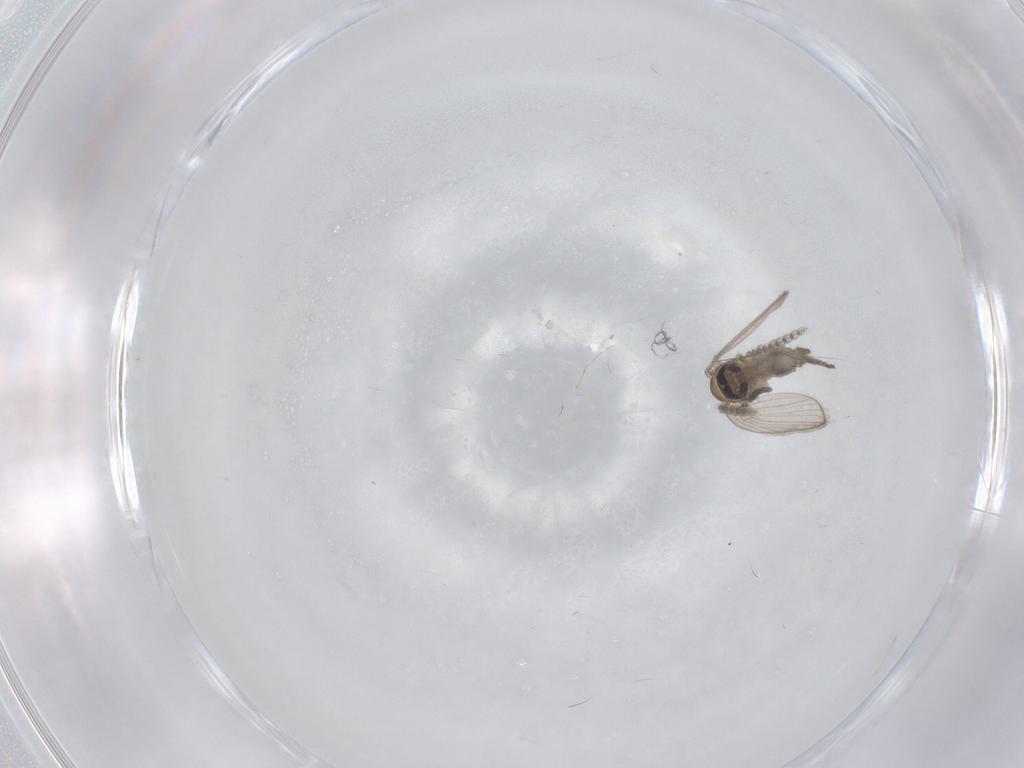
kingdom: Animalia
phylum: Arthropoda
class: Insecta
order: Diptera
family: Psychodidae
